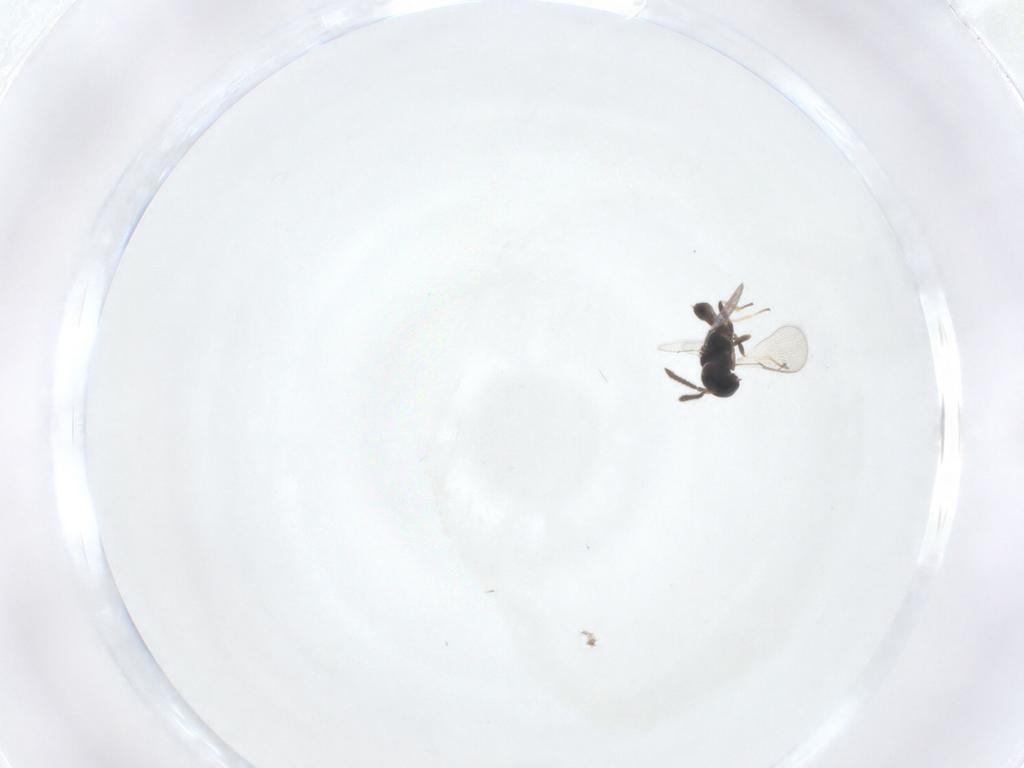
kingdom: Animalia
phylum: Arthropoda
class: Insecta
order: Hymenoptera
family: Pteromalidae
